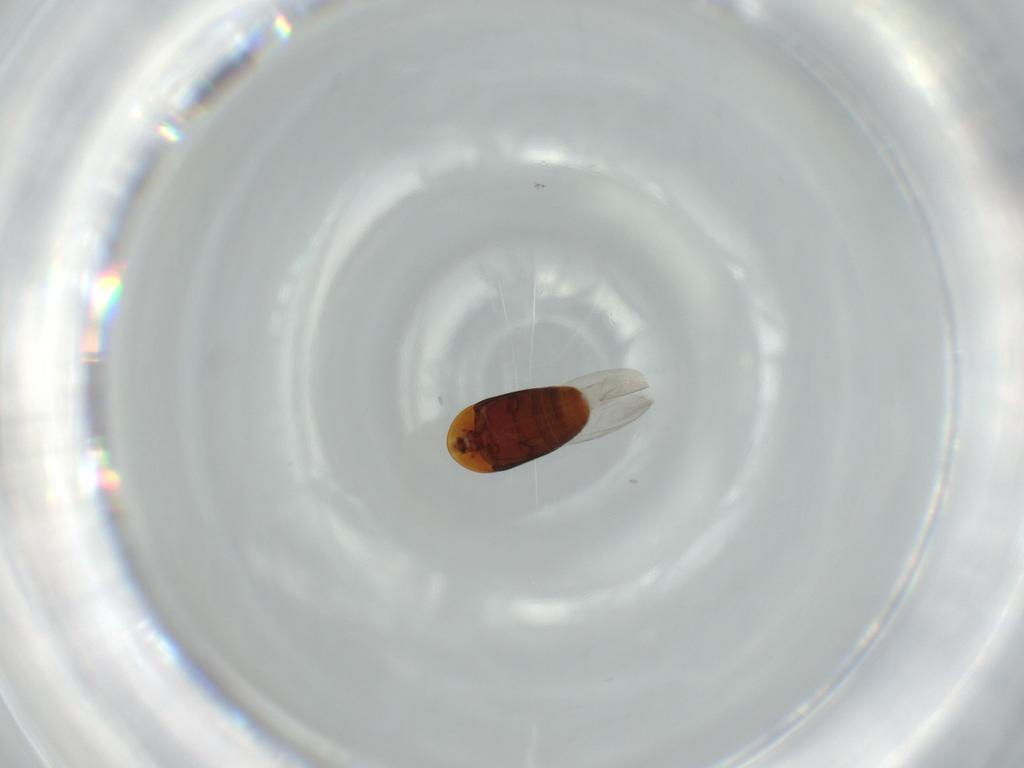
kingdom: Animalia
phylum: Arthropoda
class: Insecta
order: Coleoptera
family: Corylophidae
